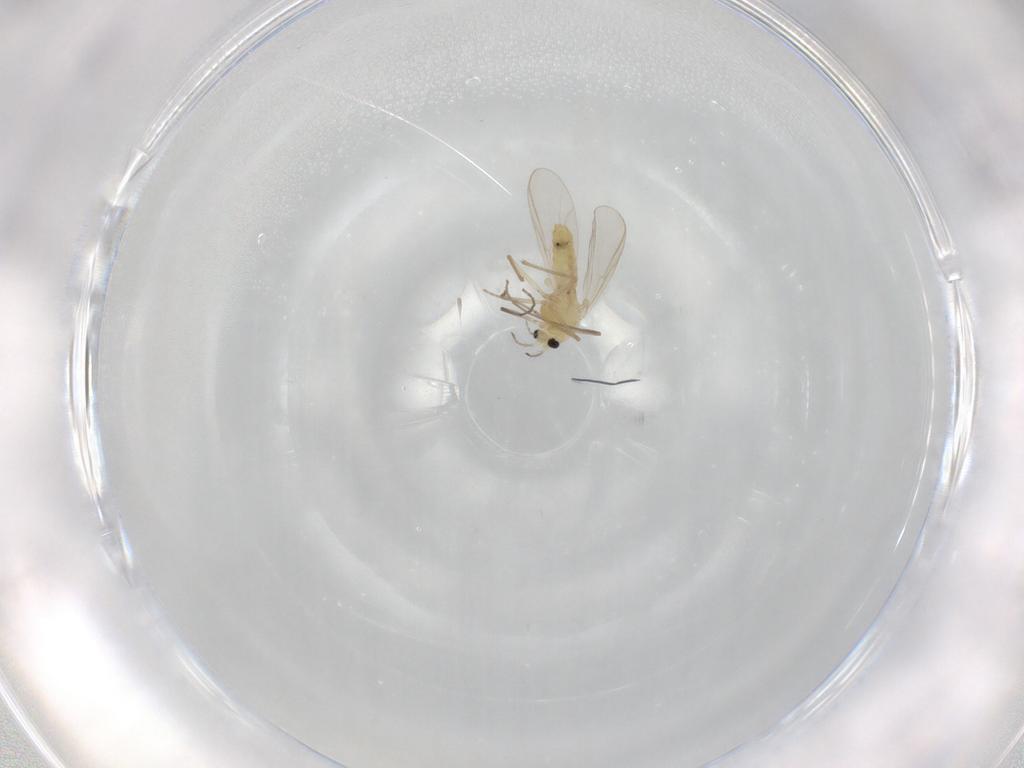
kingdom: Animalia
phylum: Arthropoda
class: Insecta
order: Diptera
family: Chironomidae
